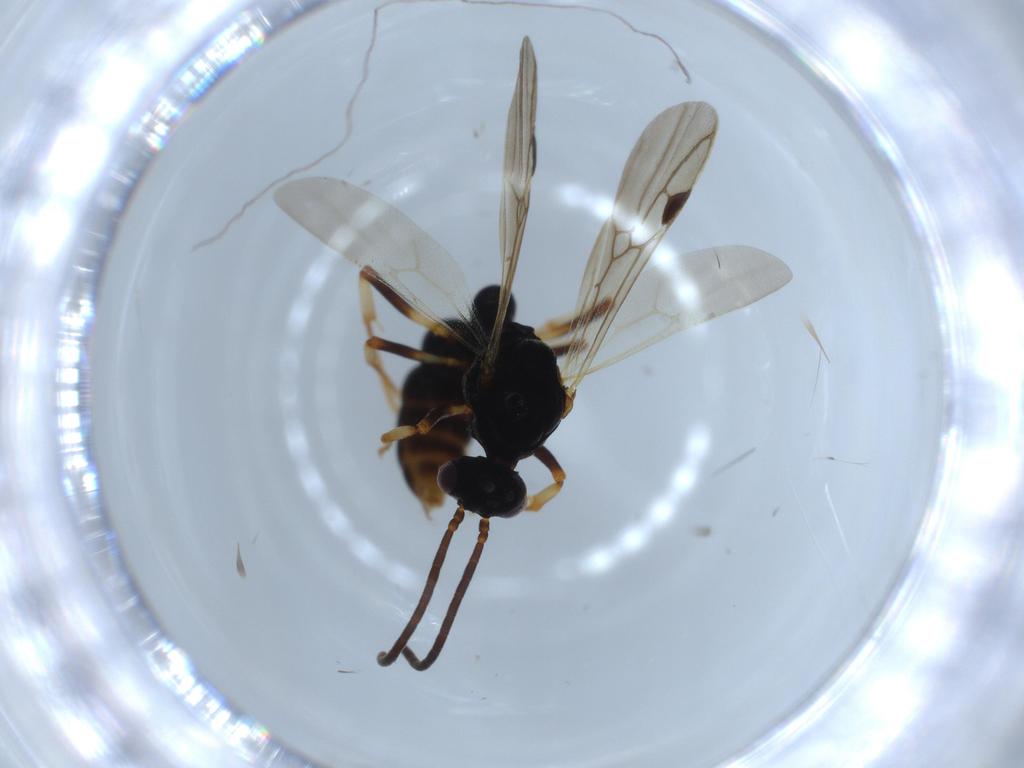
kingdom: Animalia
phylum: Arthropoda
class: Insecta
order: Hymenoptera
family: Formicidae
